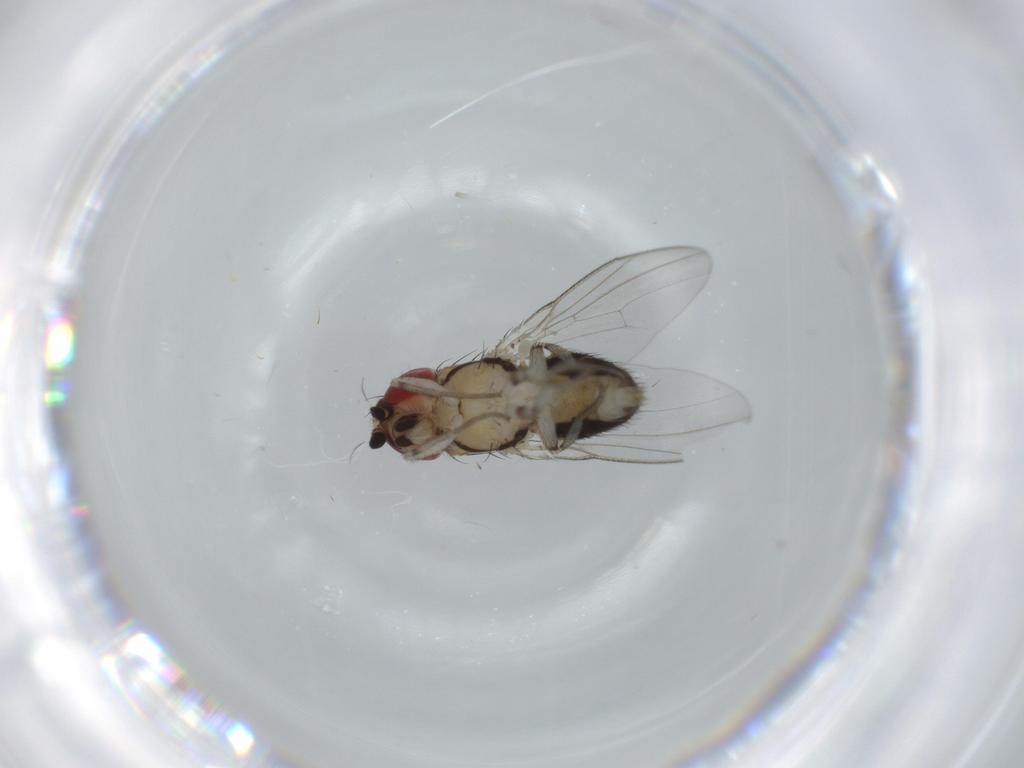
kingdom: Animalia
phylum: Arthropoda
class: Insecta
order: Diptera
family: Drosophilidae
